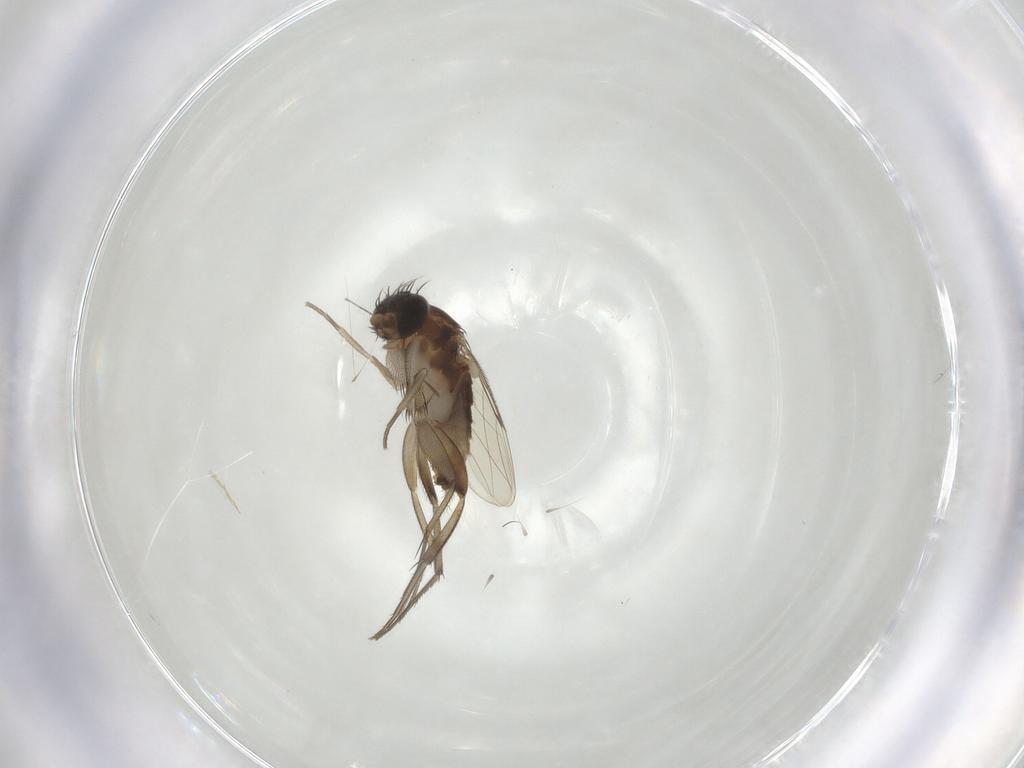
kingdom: Animalia
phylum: Arthropoda
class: Insecta
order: Diptera
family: Phoridae
